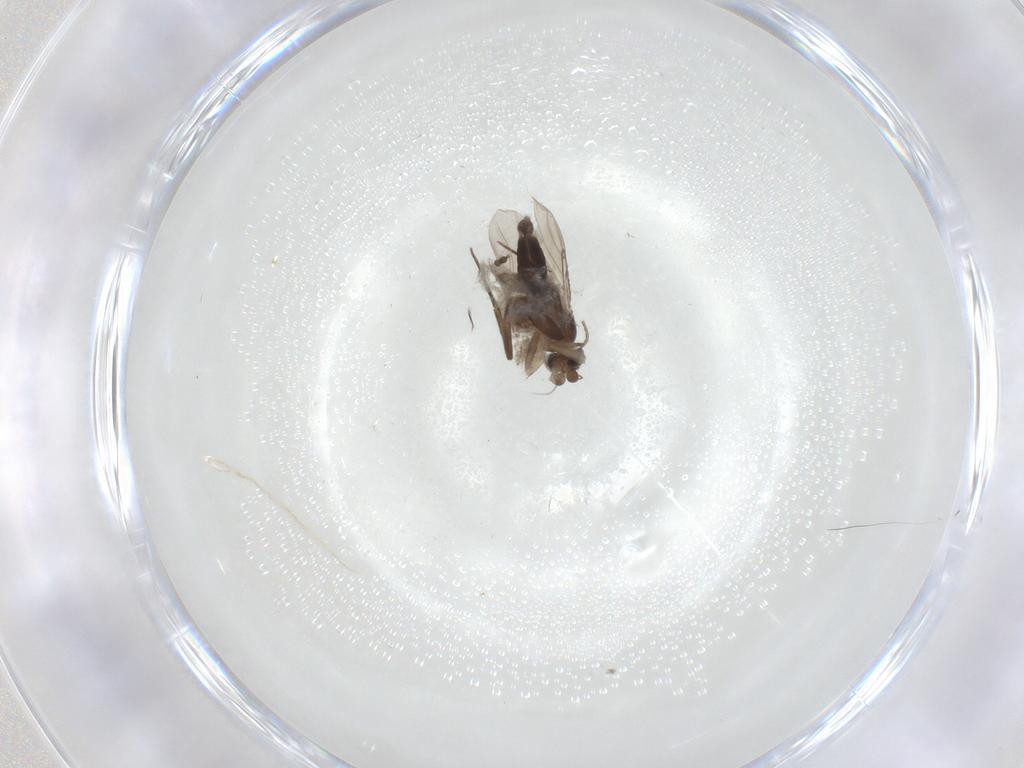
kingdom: Animalia
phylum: Arthropoda
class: Insecta
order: Diptera
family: Phoridae
